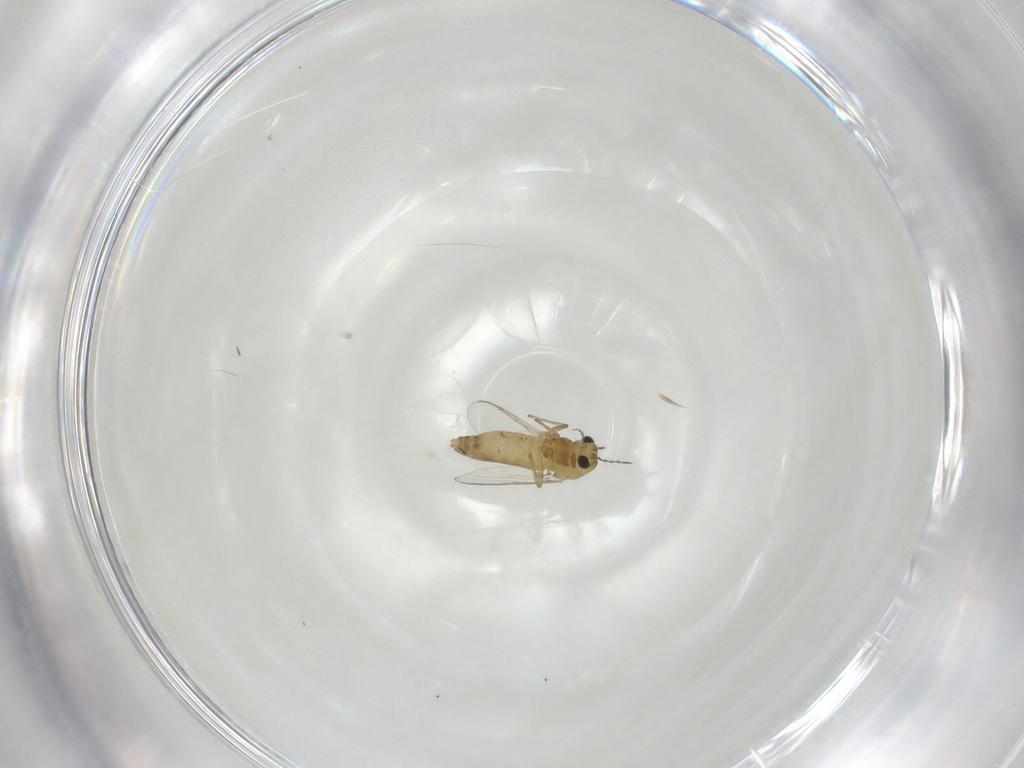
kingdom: Animalia
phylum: Arthropoda
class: Insecta
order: Diptera
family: Chironomidae
